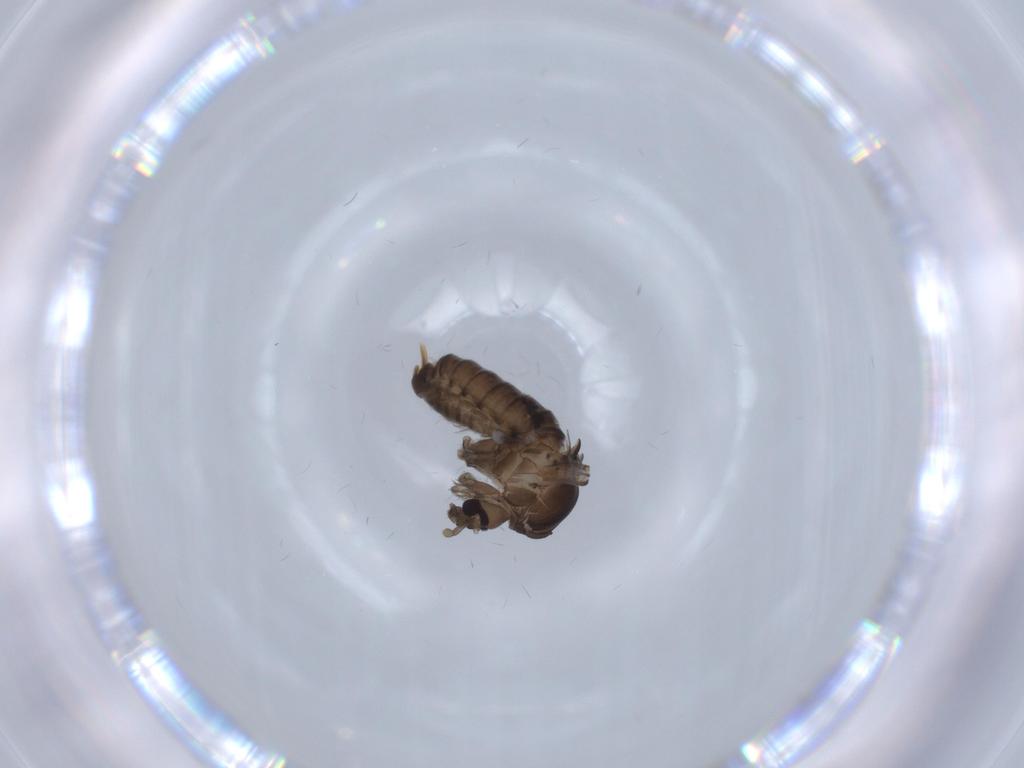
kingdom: Animalia
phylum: Arthropoda
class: Insecta
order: Diptera
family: Psychodidae
